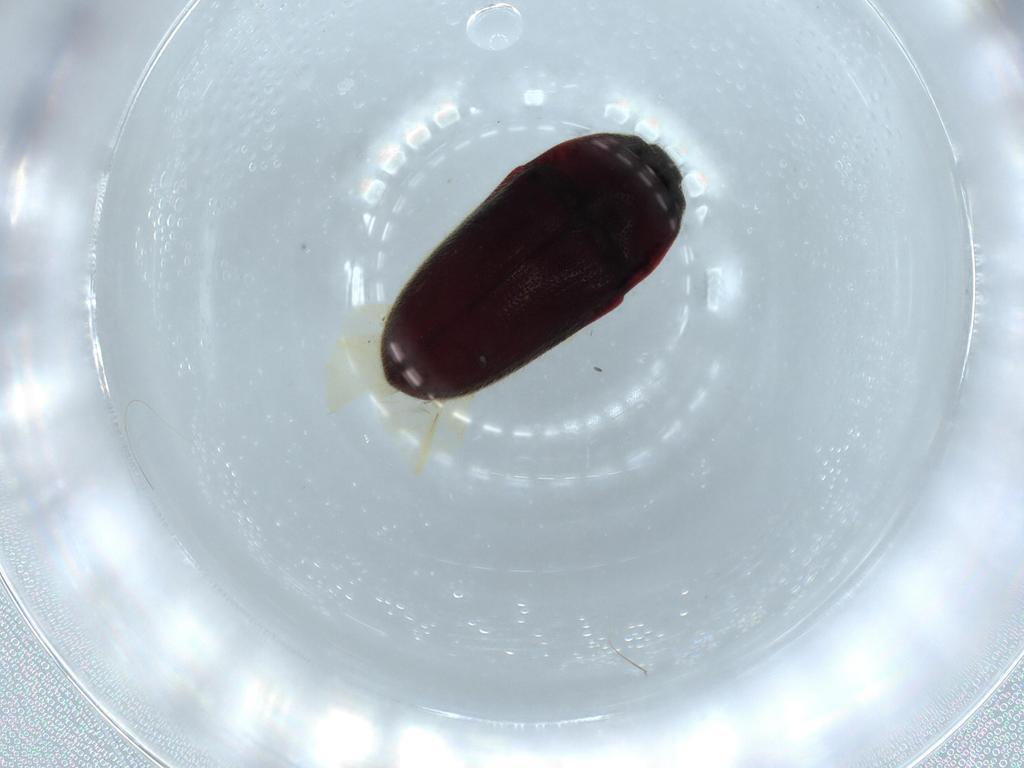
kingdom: Animalia
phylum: Arthropoda
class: Insecta
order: Coleoptera
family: Throscidae
